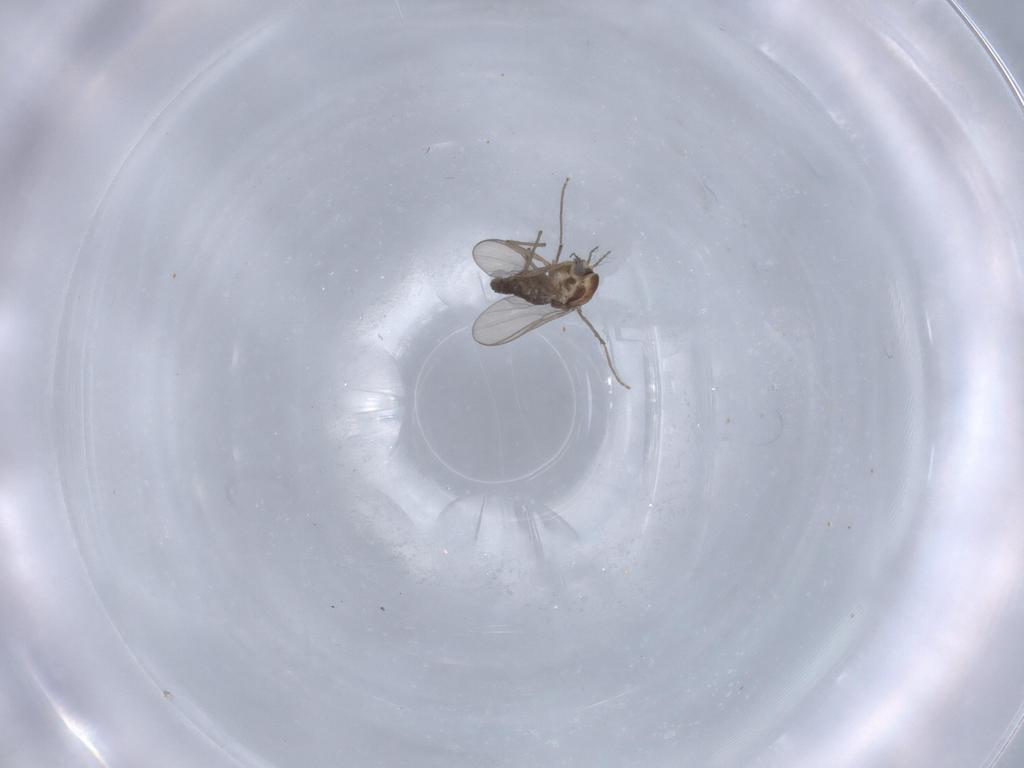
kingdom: Animalia
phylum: Arthropoda
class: Insecta
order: Diptera
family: Chironomidae
